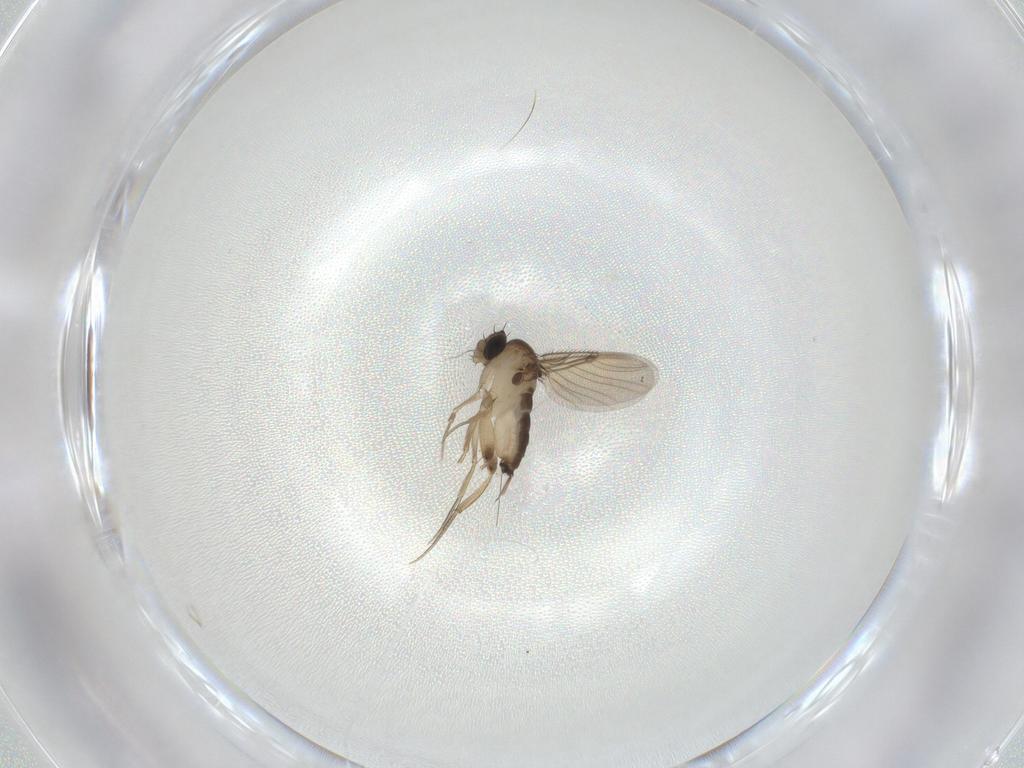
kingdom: Animalia
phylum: Arthropoda
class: Insecta
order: Diptera
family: Phoridae
